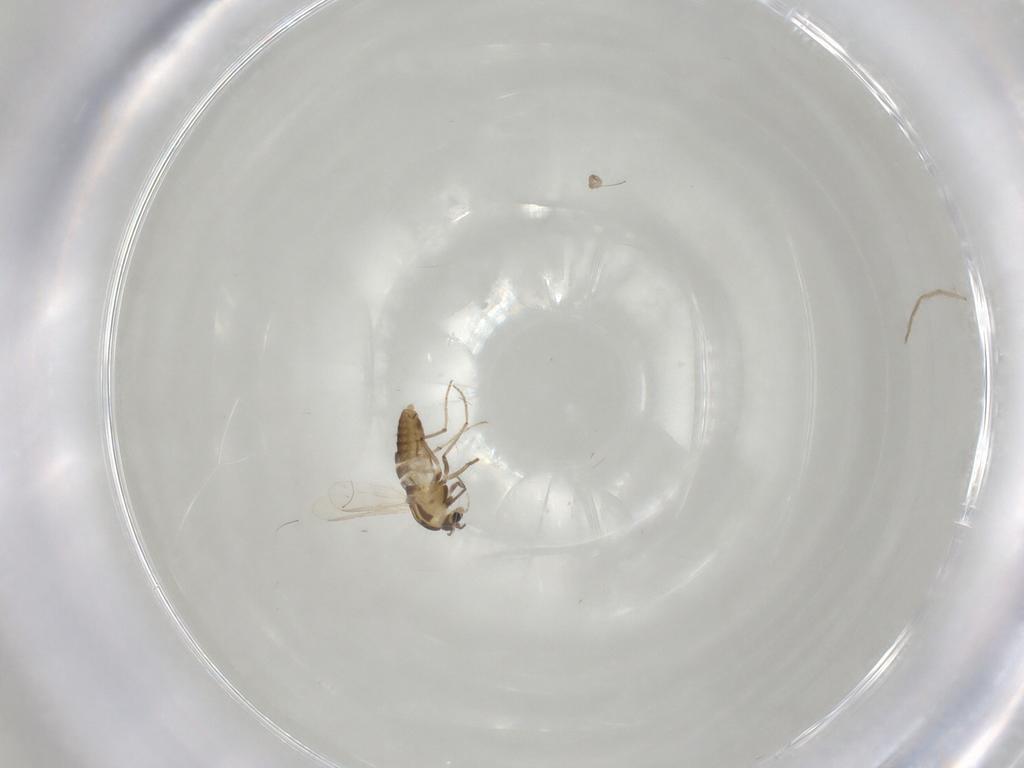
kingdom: Animalia
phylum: Arthropoda
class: Insecta
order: Diptera
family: Chironomidae
